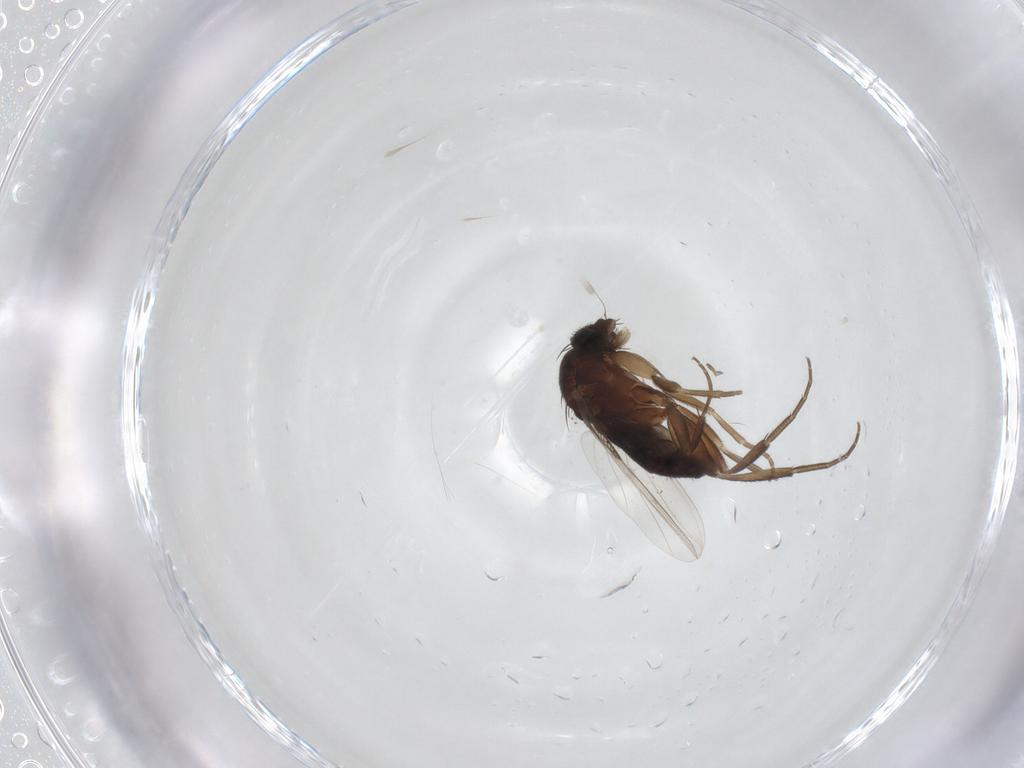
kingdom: Animalia
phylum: Arthropoda
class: Insecta
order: Diptera
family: Phoridae
